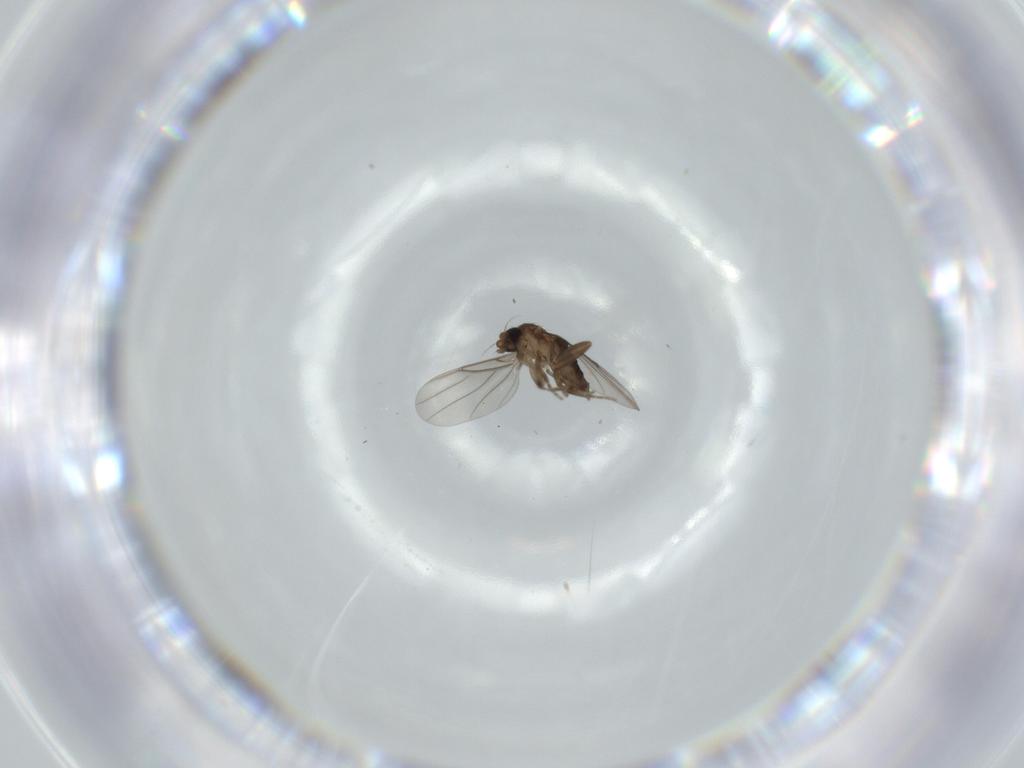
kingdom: Animalia
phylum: Arthropoda
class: Insecta
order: Diptera
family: Phoridae
